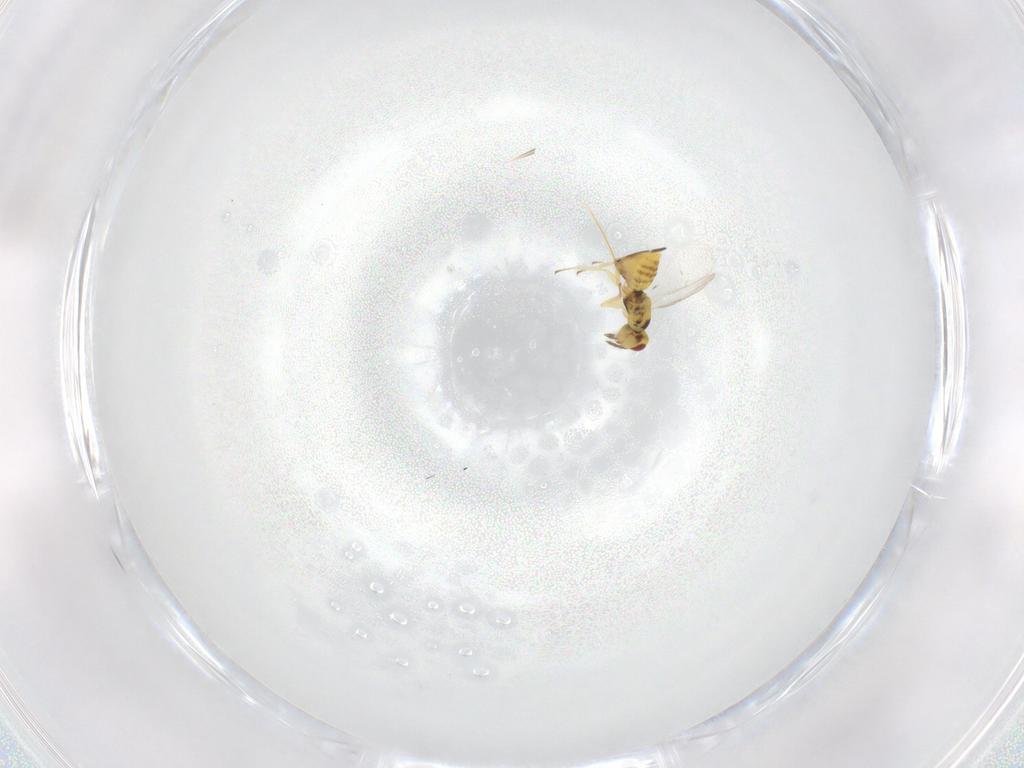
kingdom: Animalia
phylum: Arthropoda
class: Insecta
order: Hymenoptera
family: Eulophidae
